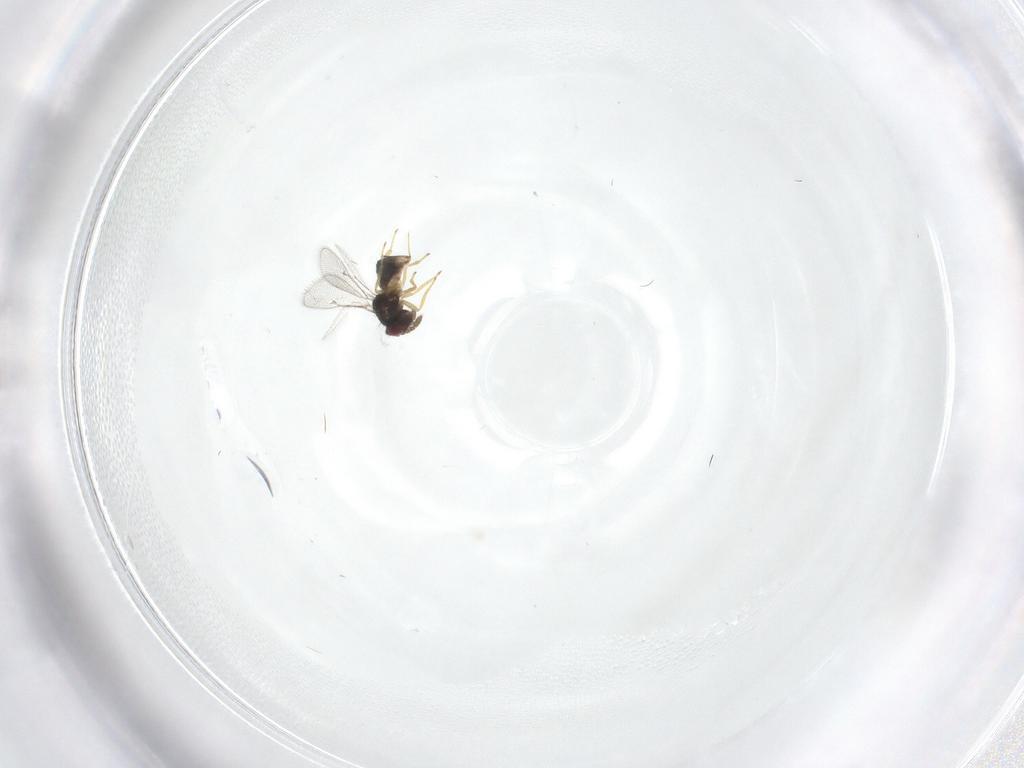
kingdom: Animalia
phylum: Arthropoda
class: Insecta
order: Hymenoptera
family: Eulophidae
